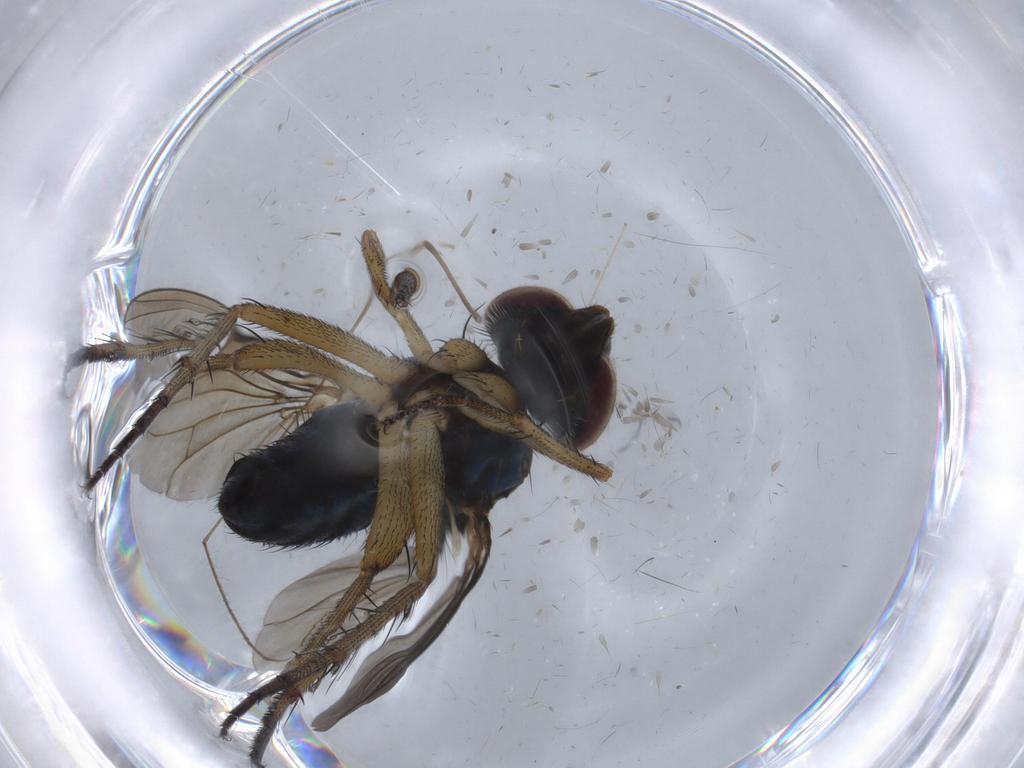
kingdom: Animalia
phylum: Arthropoda
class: Insecta
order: Diptera
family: Dolichopodidae
